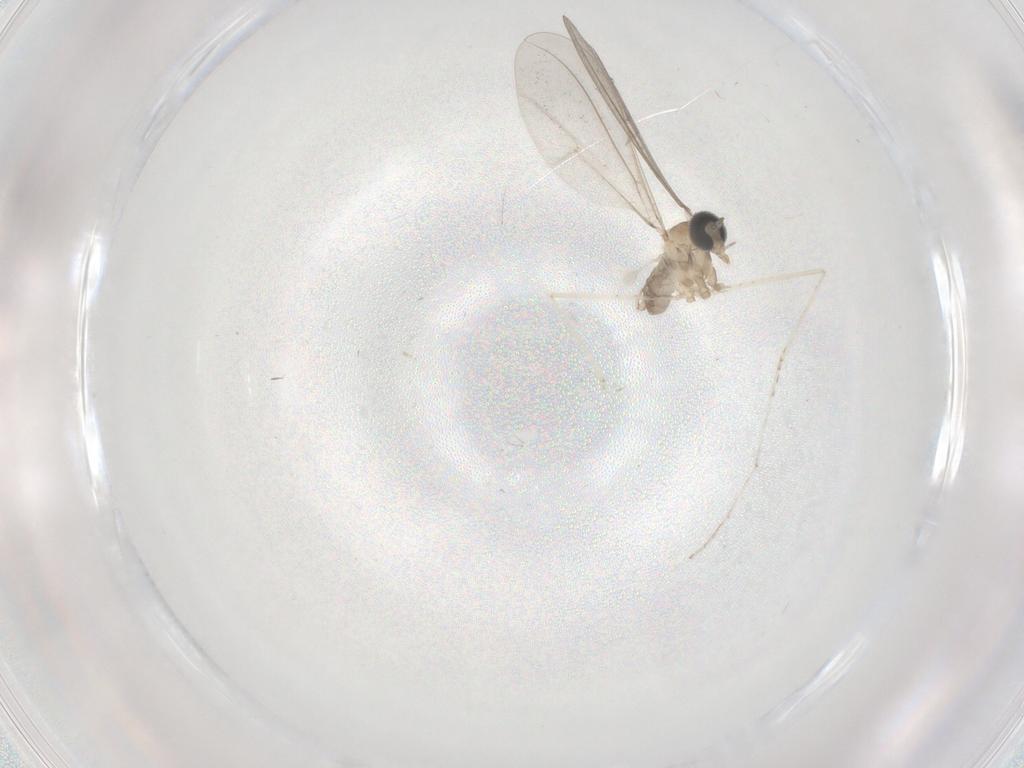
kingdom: Animalia
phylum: Arthropoda
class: Insecta
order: Diptera
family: Cecidomyiidae
